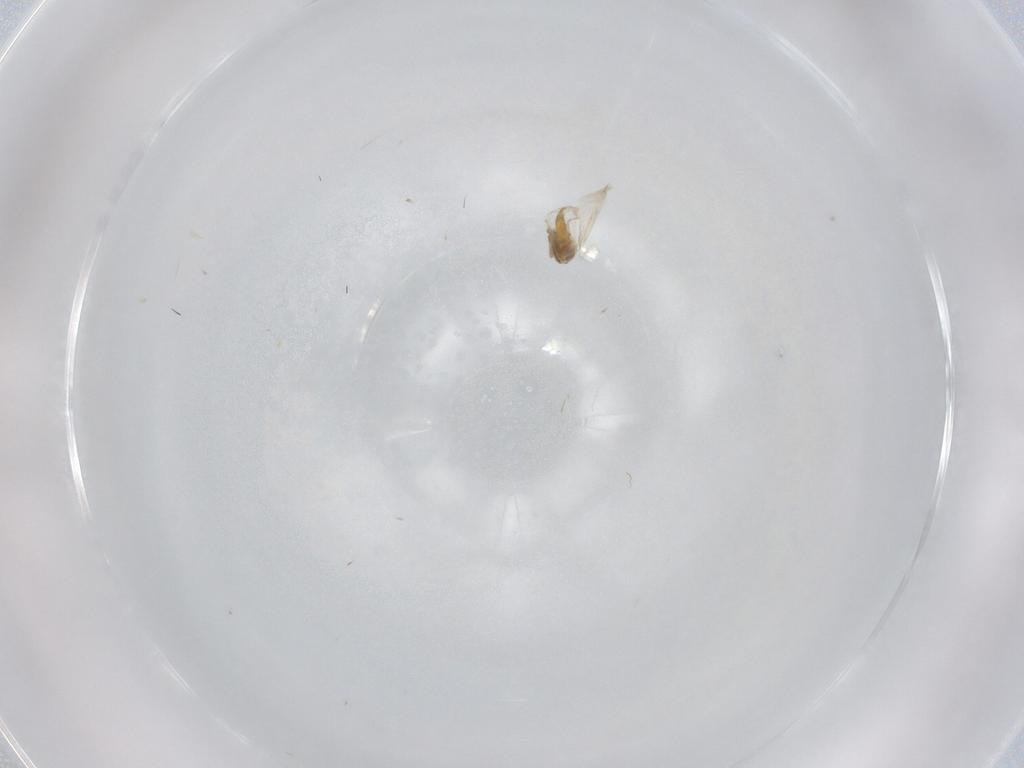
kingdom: Animalia
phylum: Arthropoda
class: Insecta
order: Hemiptera
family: Aleyrodidae
